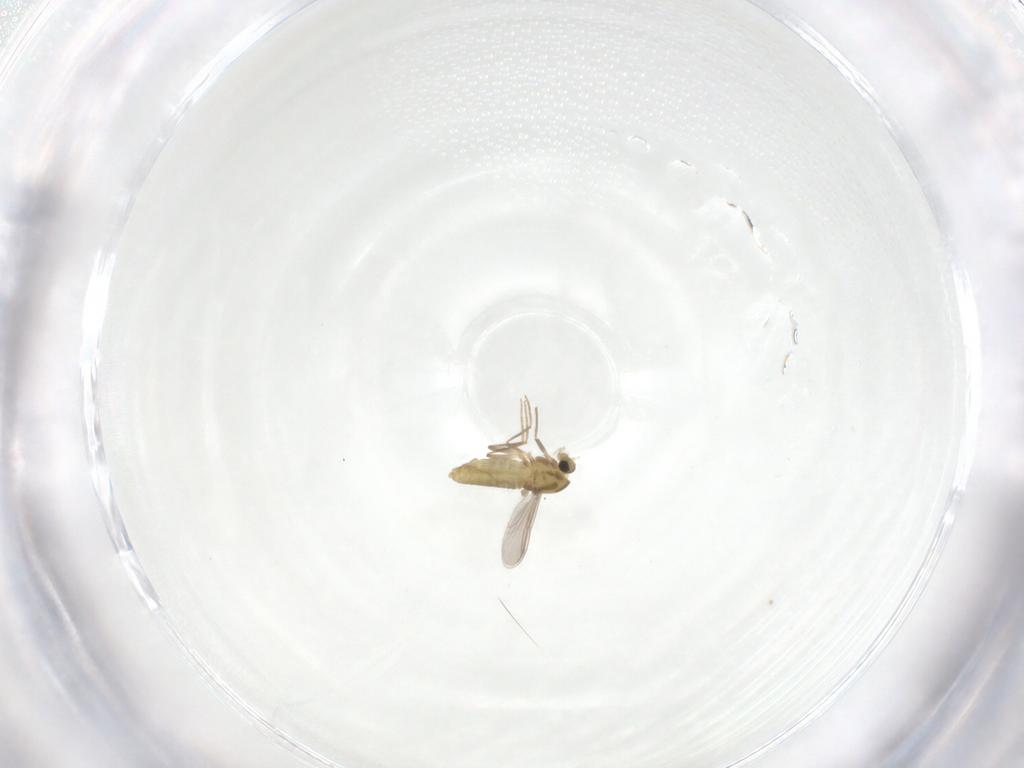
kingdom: Animalia
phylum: Arthropoda
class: Insecta
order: Diptera
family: Chironomidae
